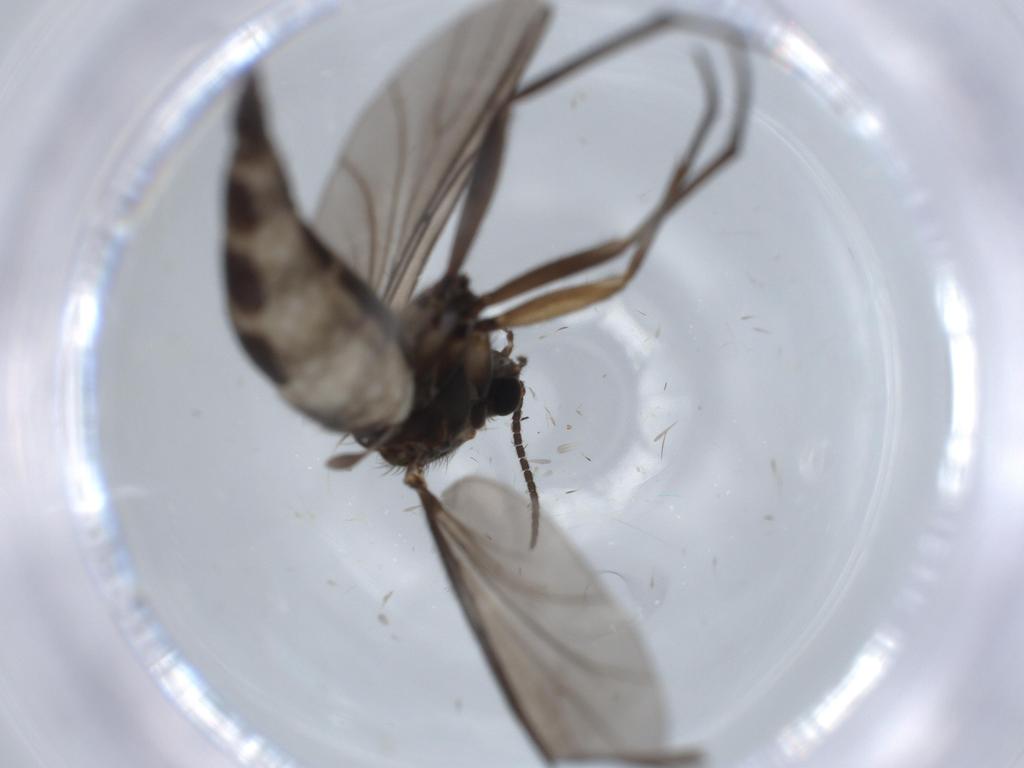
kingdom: Animalia
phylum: Arthropoda
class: Insecta
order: Diptera
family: Sciaridae
